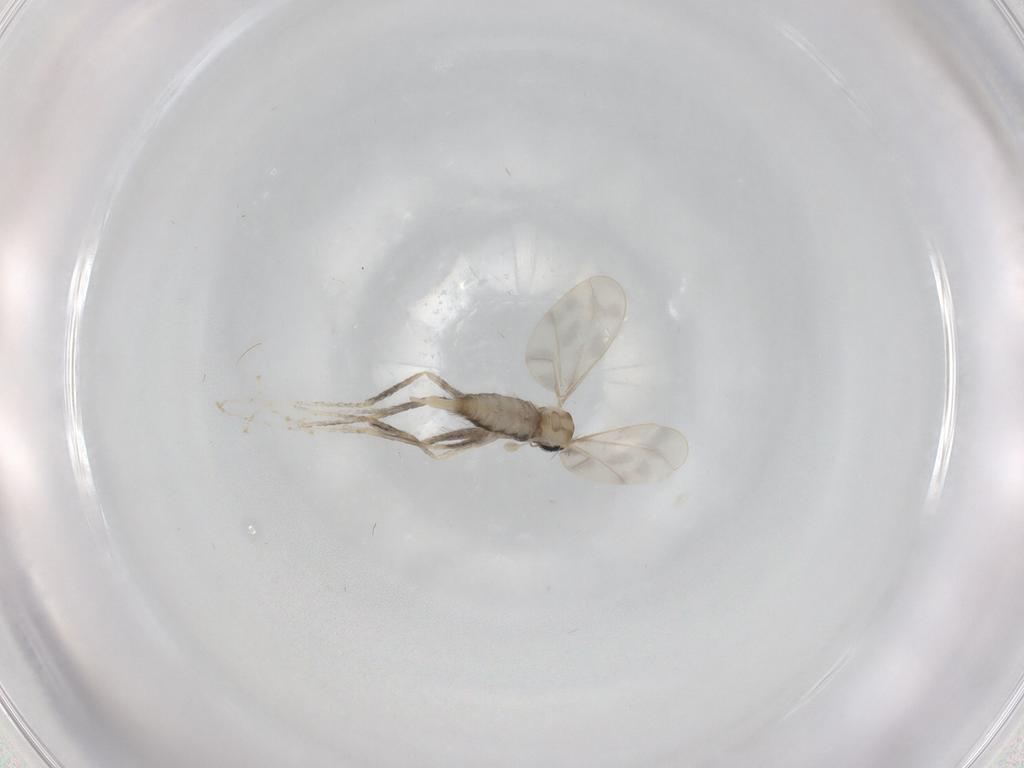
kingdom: Animalia
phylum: Arthropoda
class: Insecta
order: Diptera
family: Cecidomyiidae
